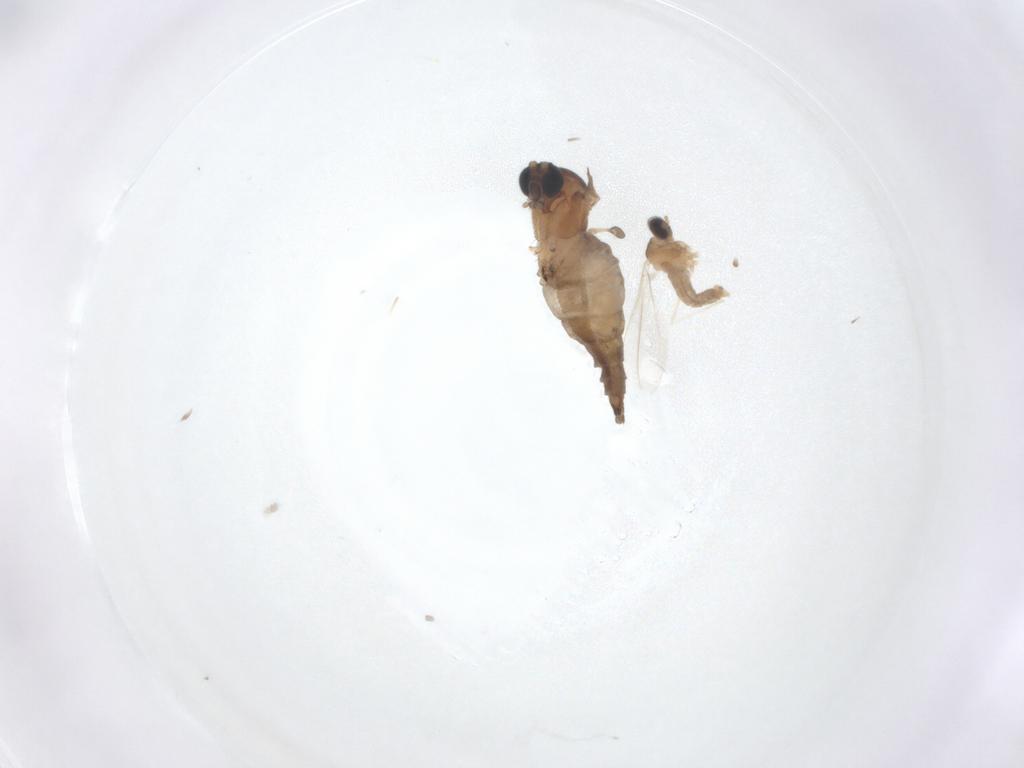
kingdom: Animalia
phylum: Arthropoda
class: Insecta
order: Diptera
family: Sciaridae
